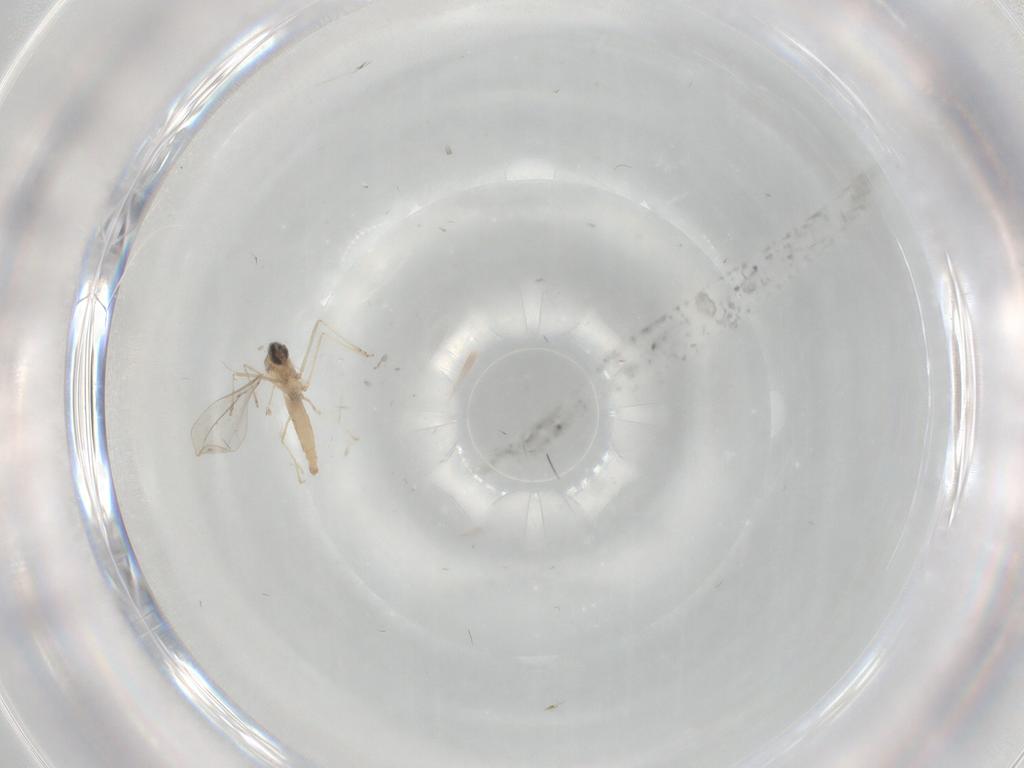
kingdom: Animalia
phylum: Arthropoda
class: Insecta
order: Diptera
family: Cecidomyiidae
